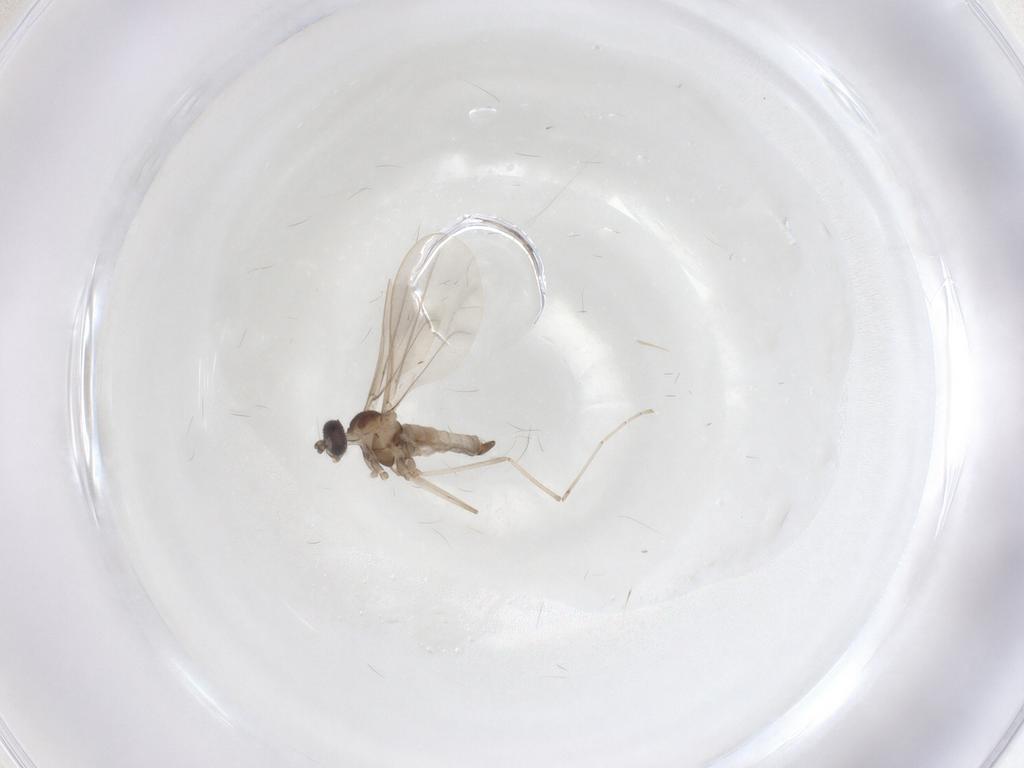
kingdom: Animalia
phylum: Arthropoda
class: Insecta
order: Diptera
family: Cecidomyiidae
